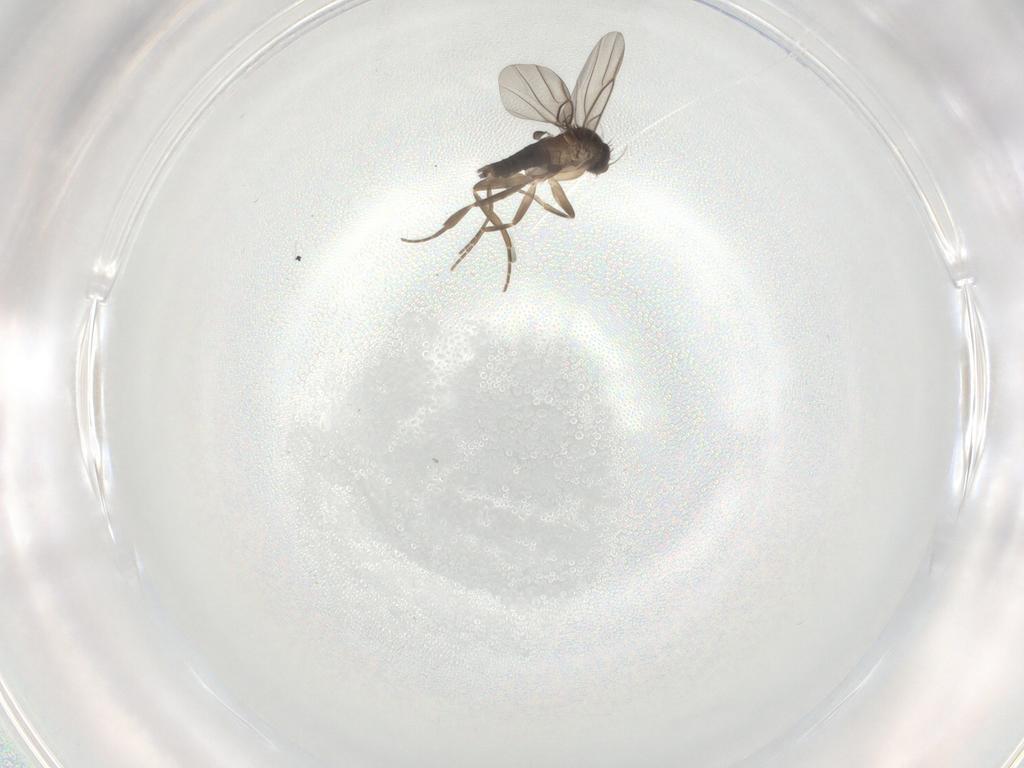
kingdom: Animalia
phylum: Arthropoda
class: Insecta
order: Diptera
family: Phoridae
